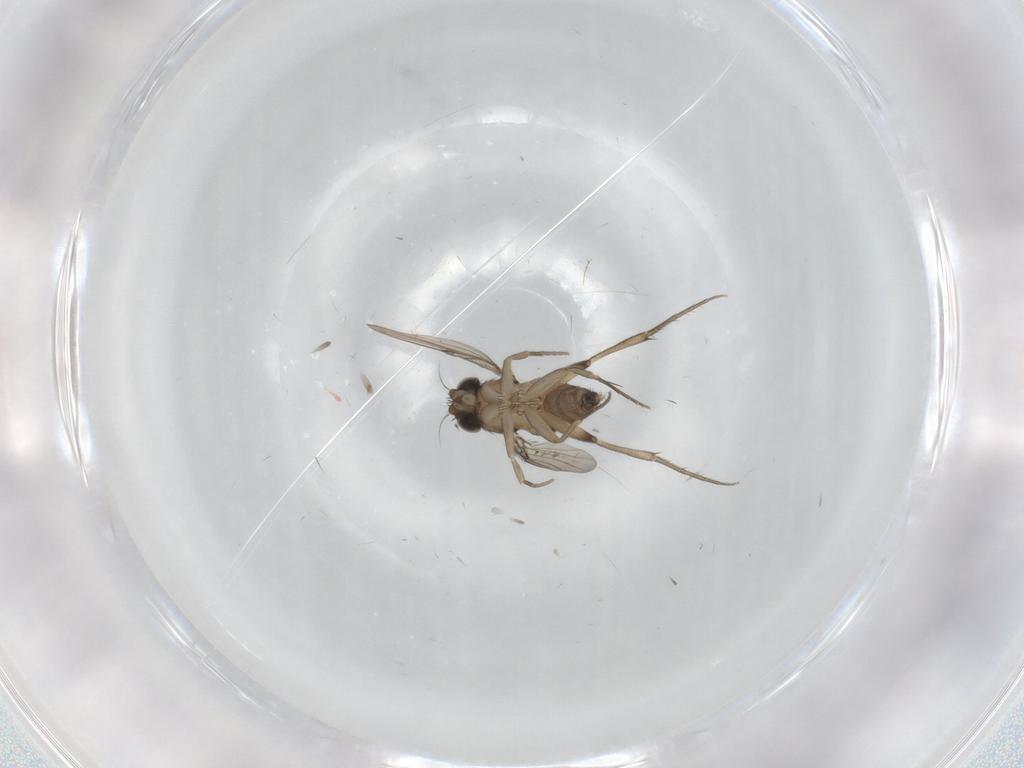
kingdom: Animalia
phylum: Arthropoda
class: Insecta
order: Diptera
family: Phoridae
